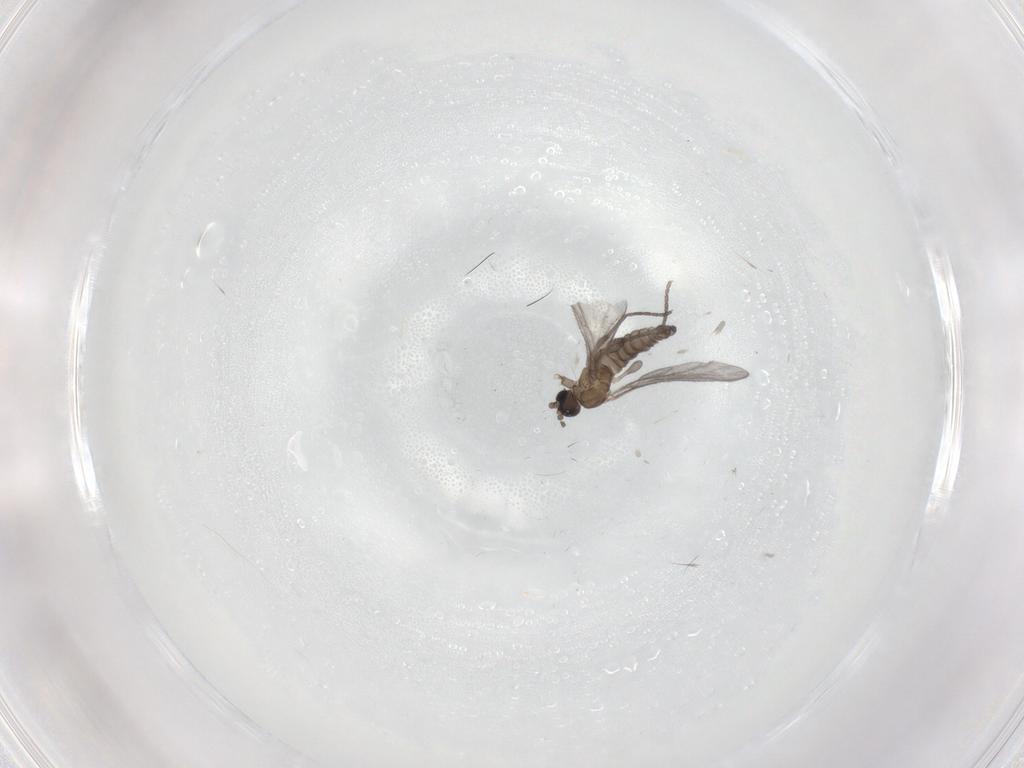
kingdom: Animalia
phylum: Arthropoda
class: Insecta
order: Diptera
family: Sciaridae
